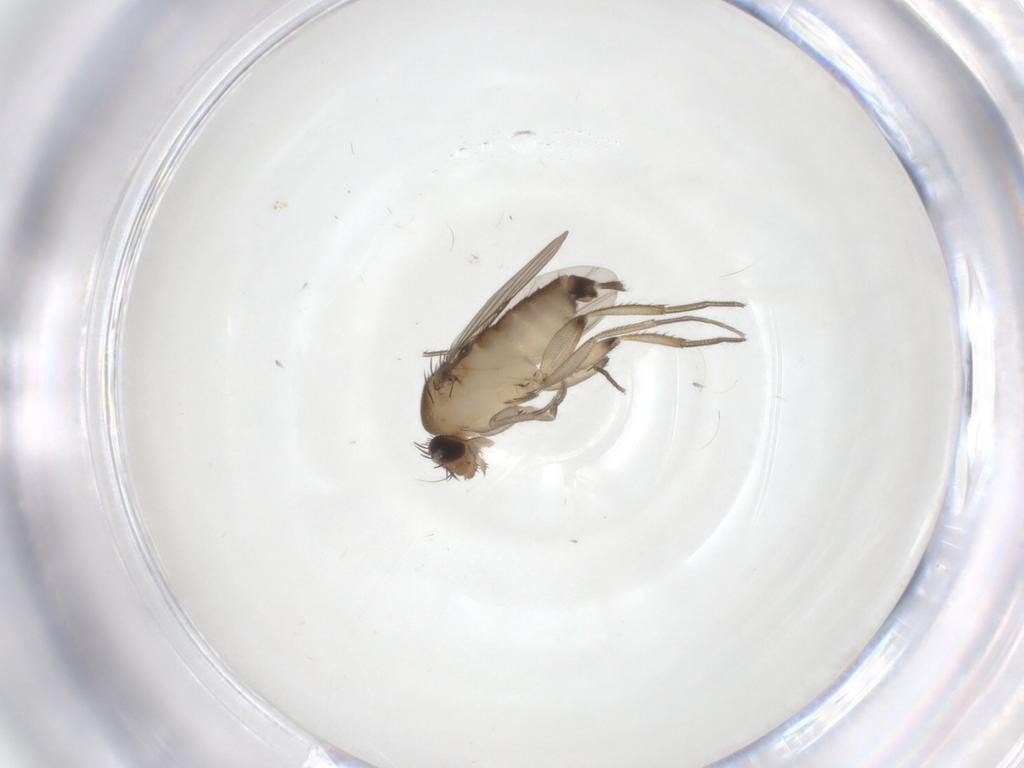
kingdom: Animalia
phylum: Arthropoda
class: Insecta
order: Diptera
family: Phoridae
